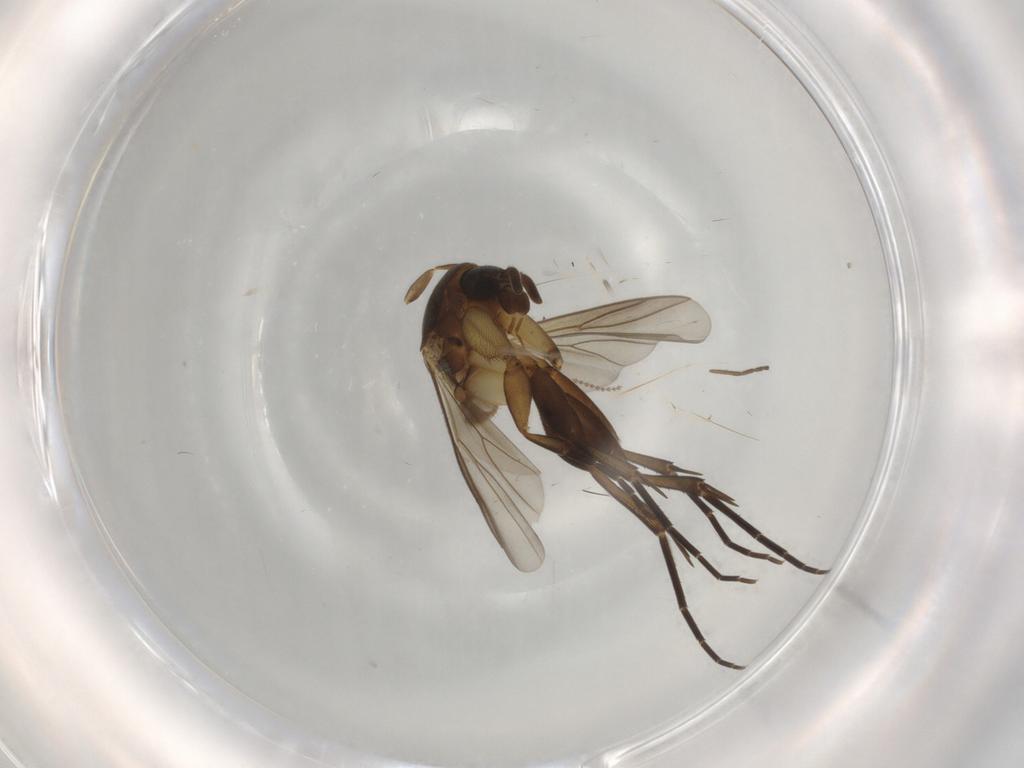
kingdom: Animalia
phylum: Arthropoda
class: Insecta
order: Diptera
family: Mycetophilidae
